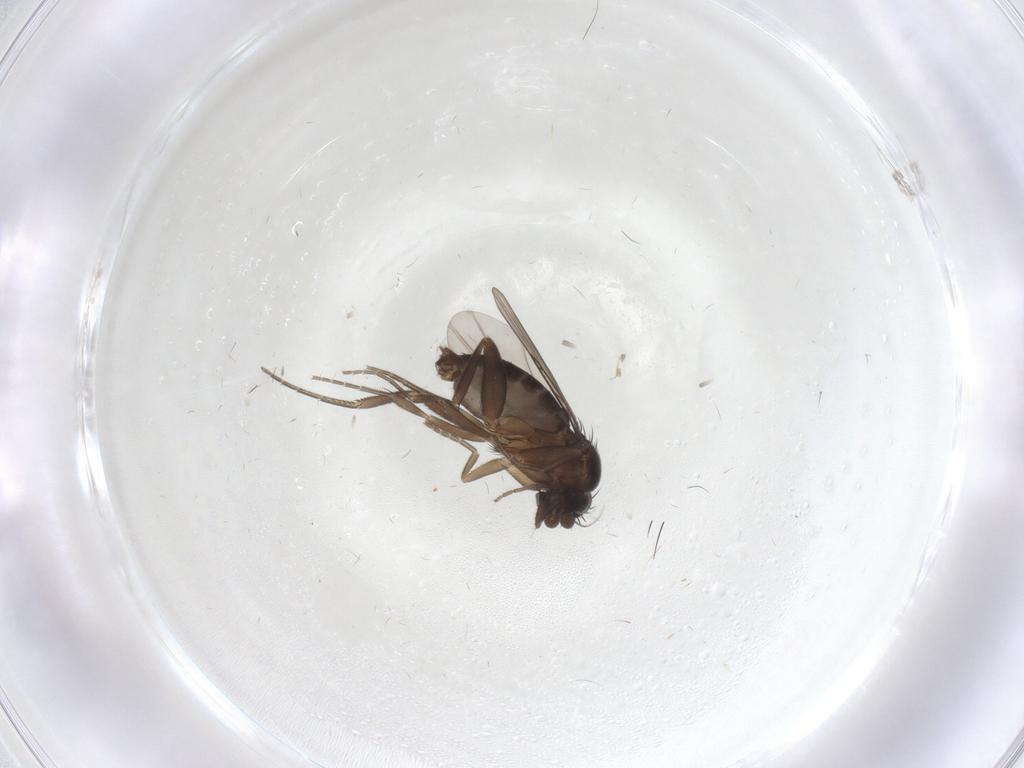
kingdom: Animalia
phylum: Arthropoda
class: Insecta
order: Diptera
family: Phoridae
